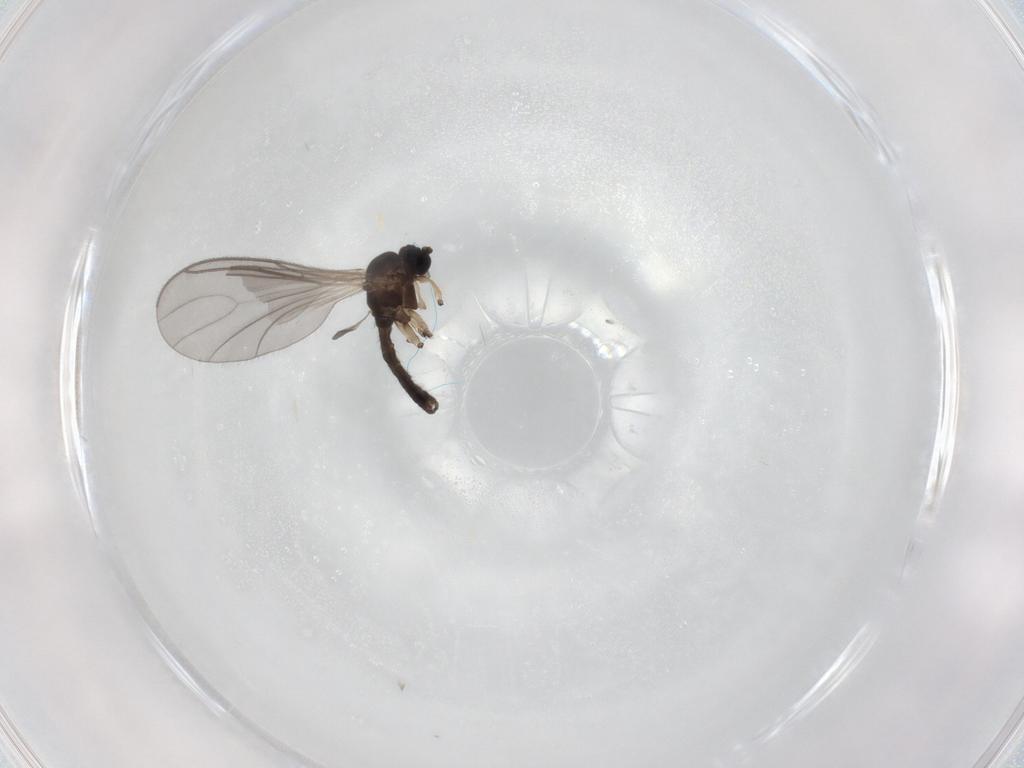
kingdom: Animalia
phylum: Arthropoda
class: Insecta
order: Diptera
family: Sciaridae
